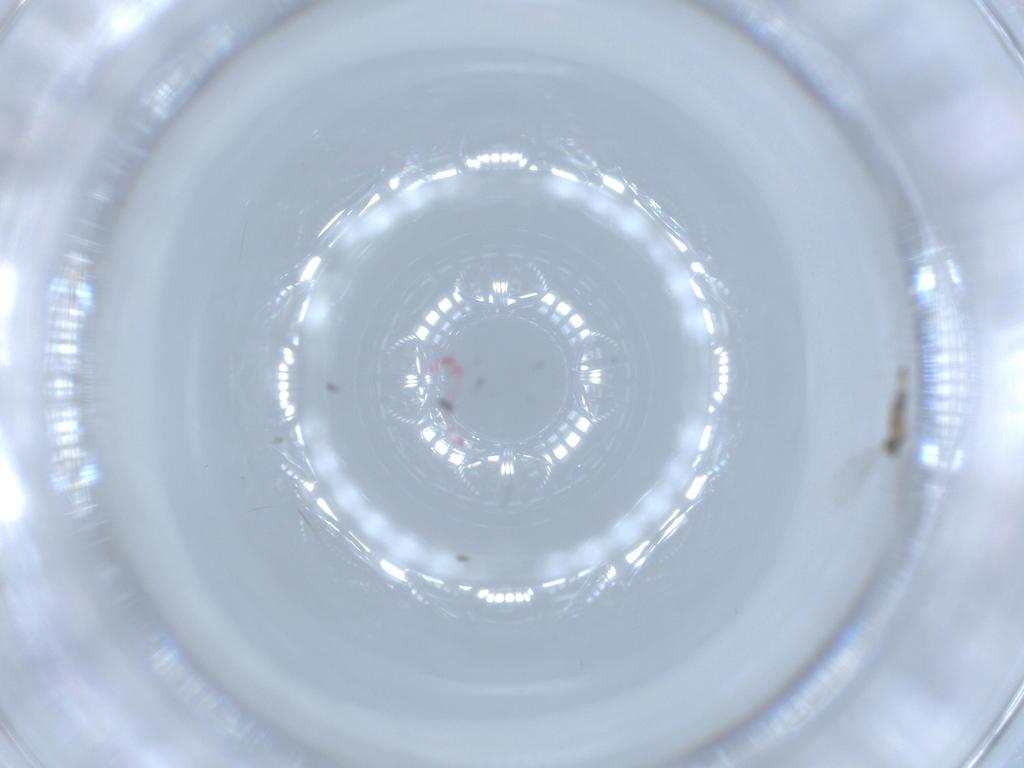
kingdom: Animalia
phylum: Arthropoda
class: Insecta
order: Diptera
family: Cecidomyiidae
